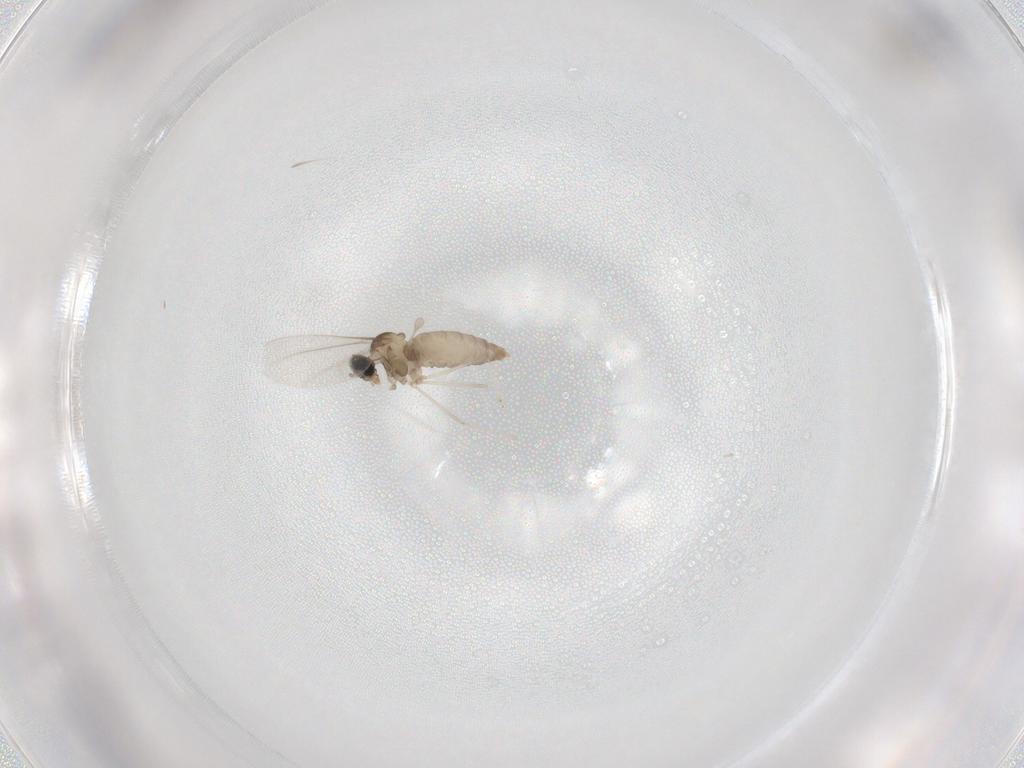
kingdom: Animalia
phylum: Arthropoda
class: Insecta
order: Diptera
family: Cecidomyiidae
